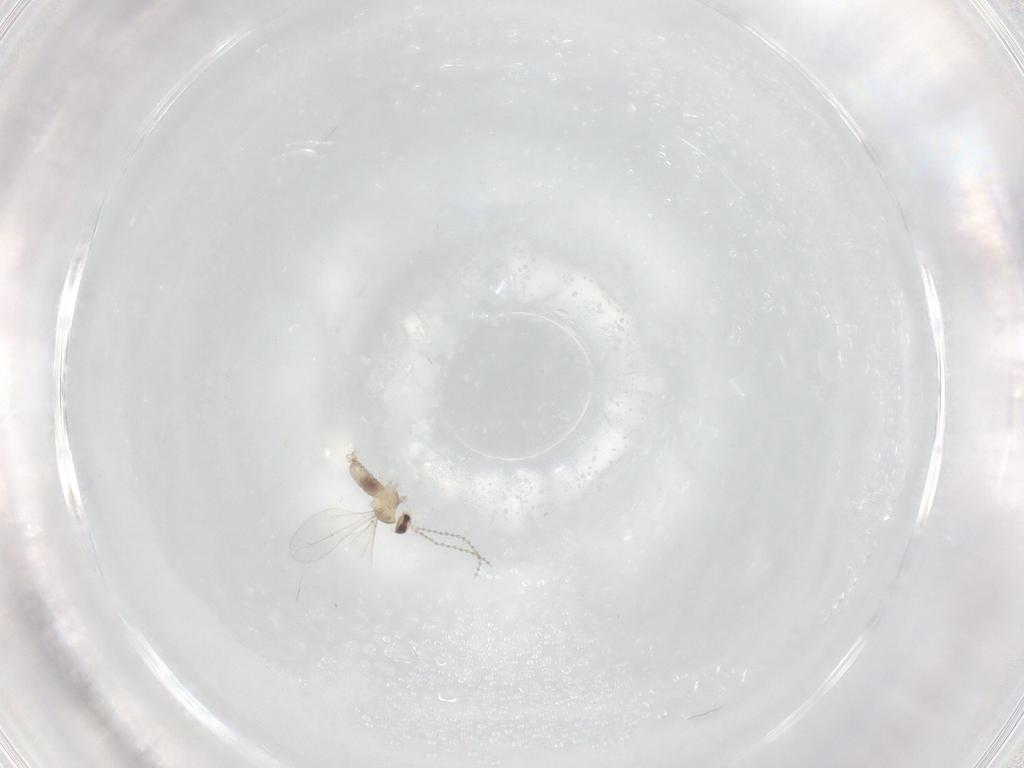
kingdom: Animalia
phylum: Arthropoda
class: Insecta
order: Diptera
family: Cecidomyiidae
